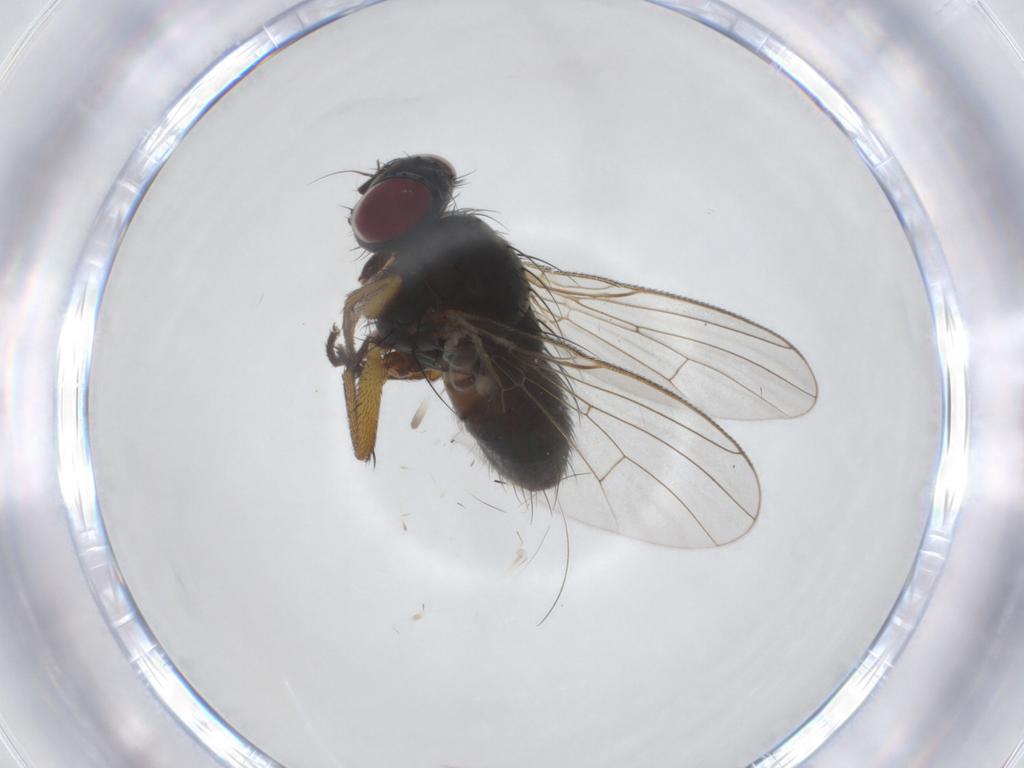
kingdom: Animalia
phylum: Arthropoda
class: Insecta
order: Diptera
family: Muscidae
